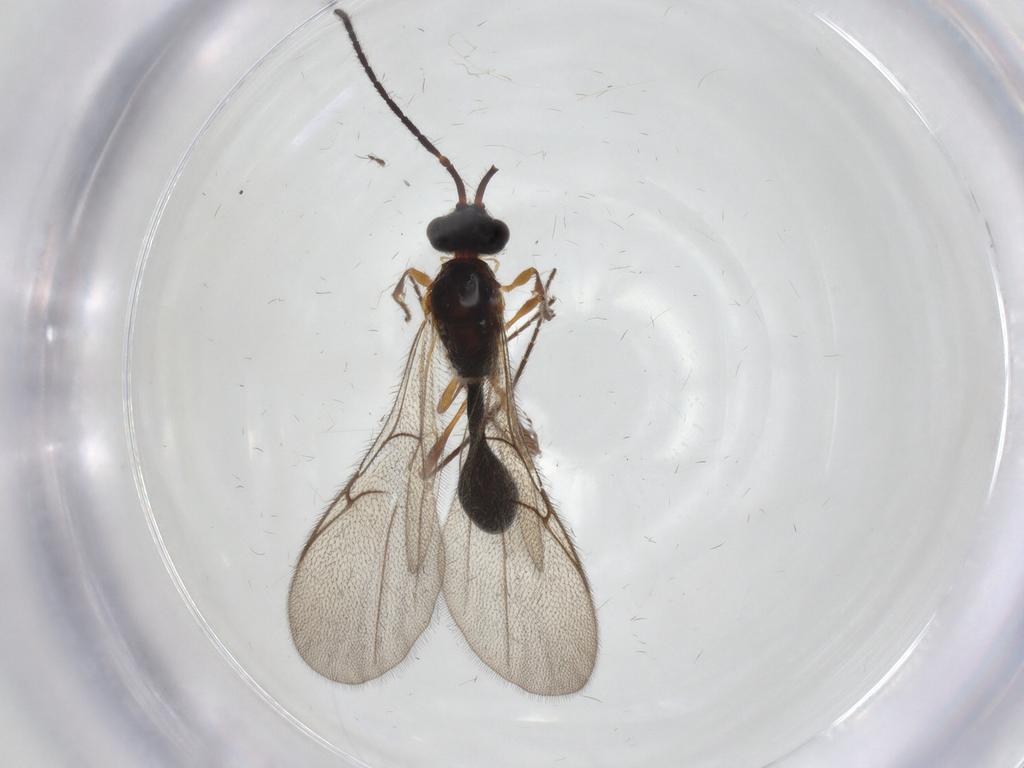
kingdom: Animalia
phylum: Arthropoda
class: Insecta
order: Hymenoptera
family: Diapriidae
